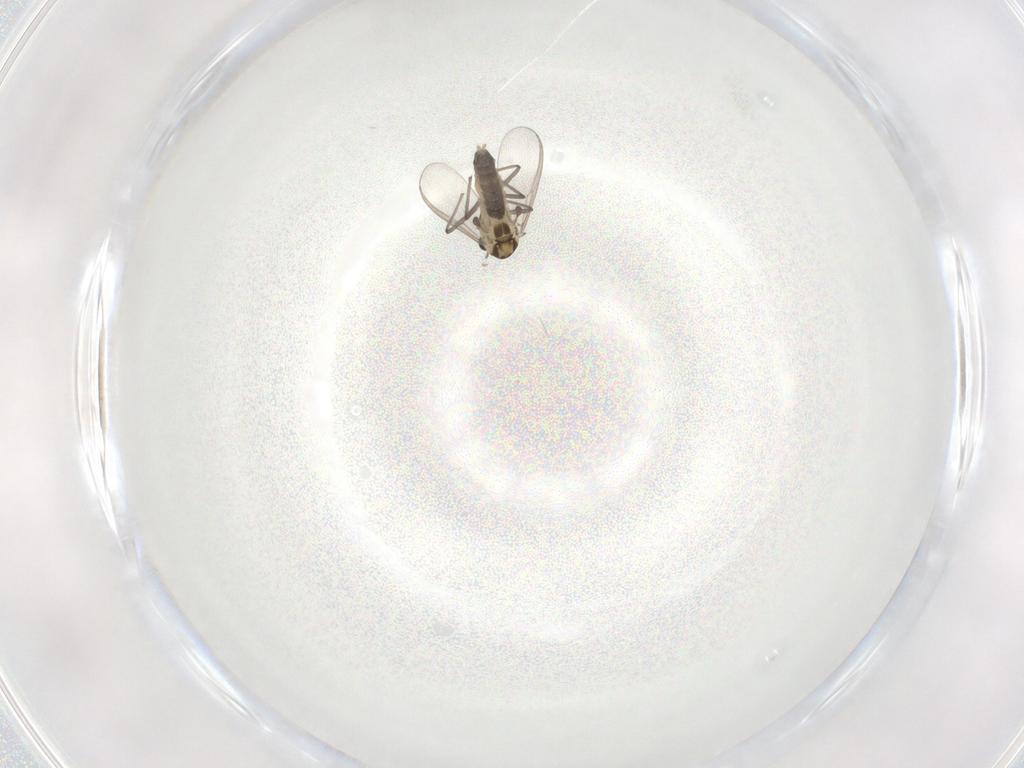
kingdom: Animalia
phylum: Arthropoda
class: Insecta
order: Diptera
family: Chironomidae
